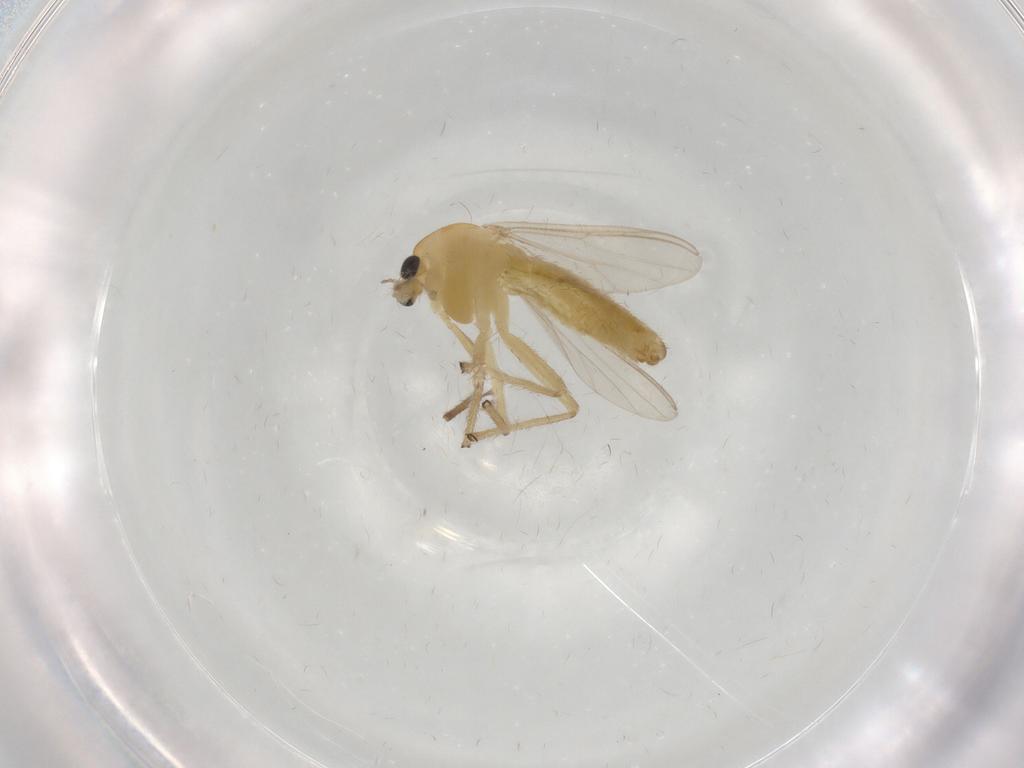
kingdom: Animalia
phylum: Arthropoda
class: Insecta
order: Diptera
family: Chironomidae
